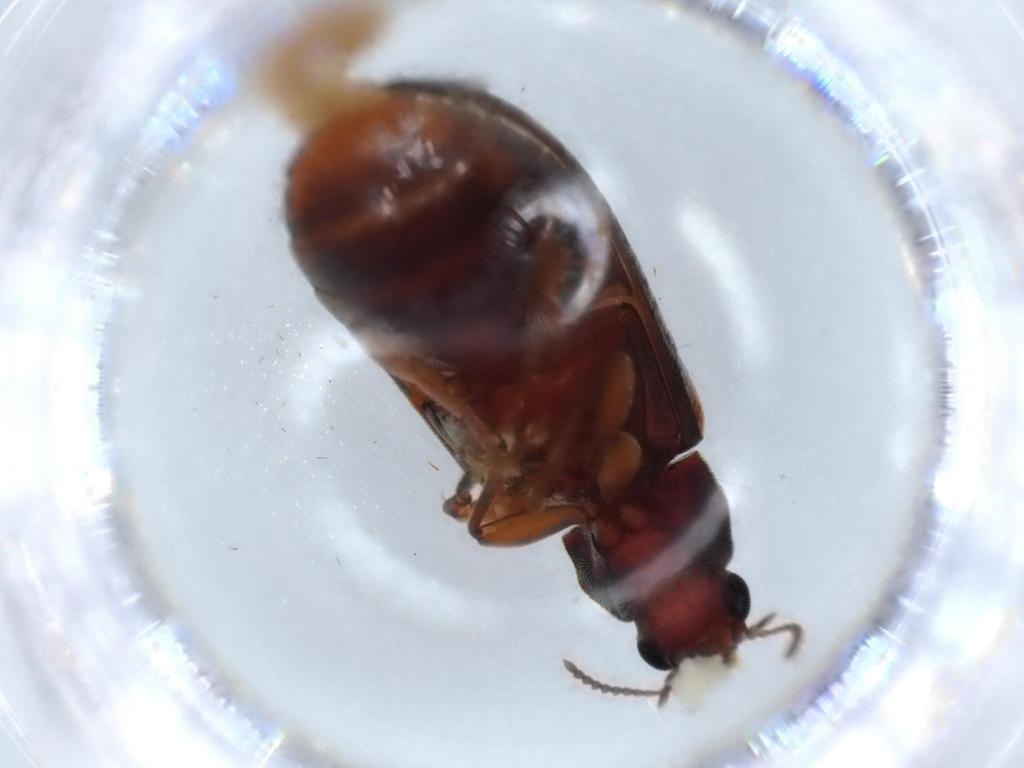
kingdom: Animalia
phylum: Arthropoda
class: Insecta
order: Coleoptera
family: Mycteridae
